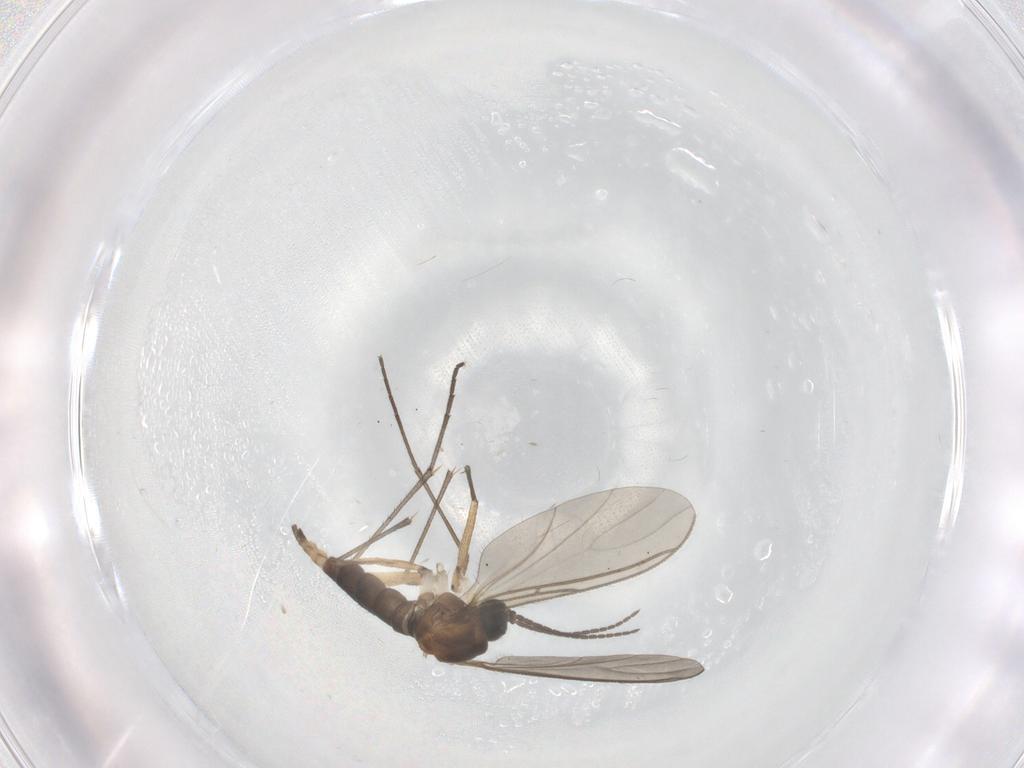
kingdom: Animalia
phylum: Arthropoda
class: Insecta
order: Diptera
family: Sciaridae
